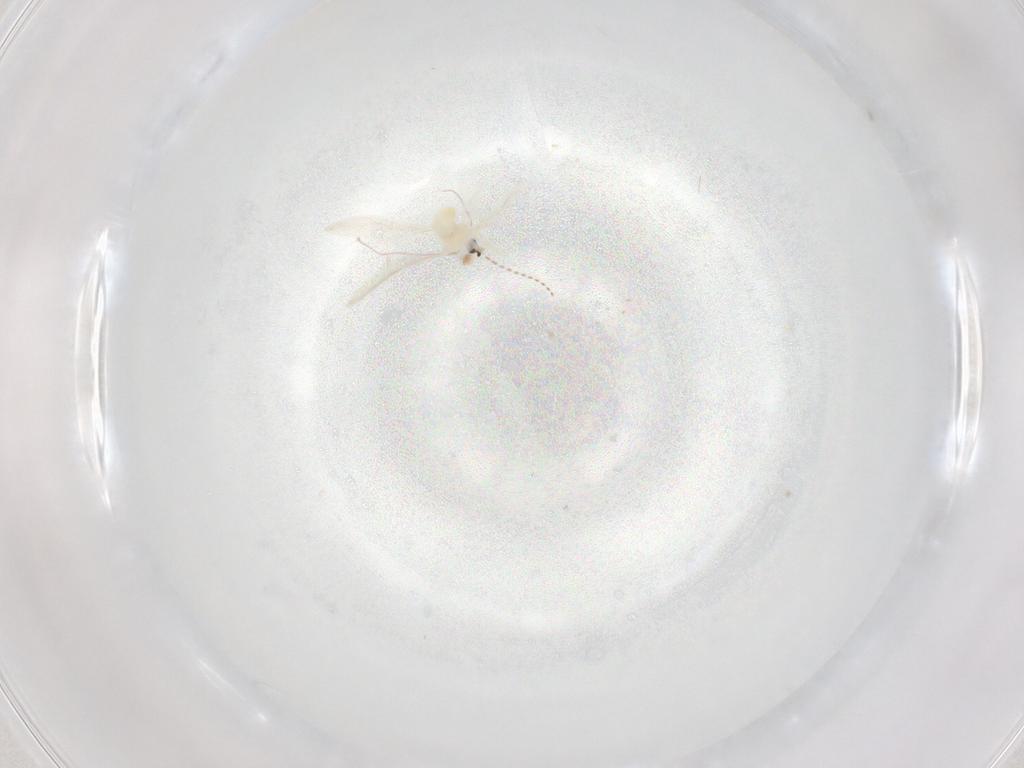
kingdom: Animalia
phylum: Arthropoda
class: Insecta
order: Diptera
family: Cecidomyiidae
